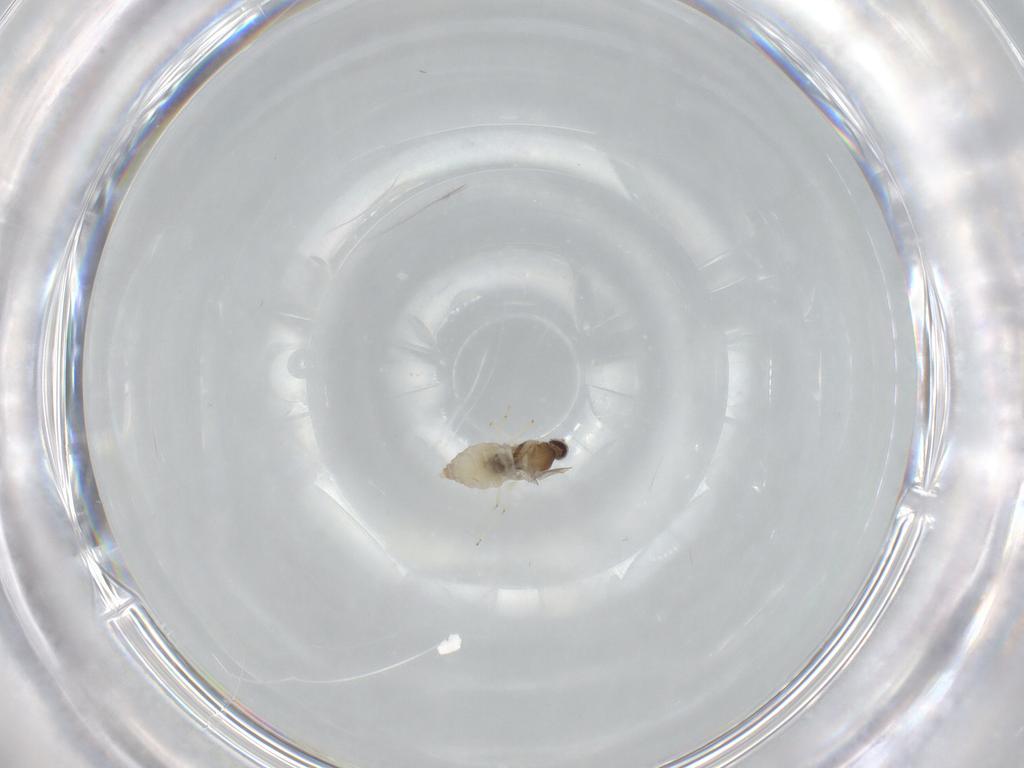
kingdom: Animalia
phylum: Arthropoda
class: Insecta
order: Diptera
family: Cecidomyiidae
